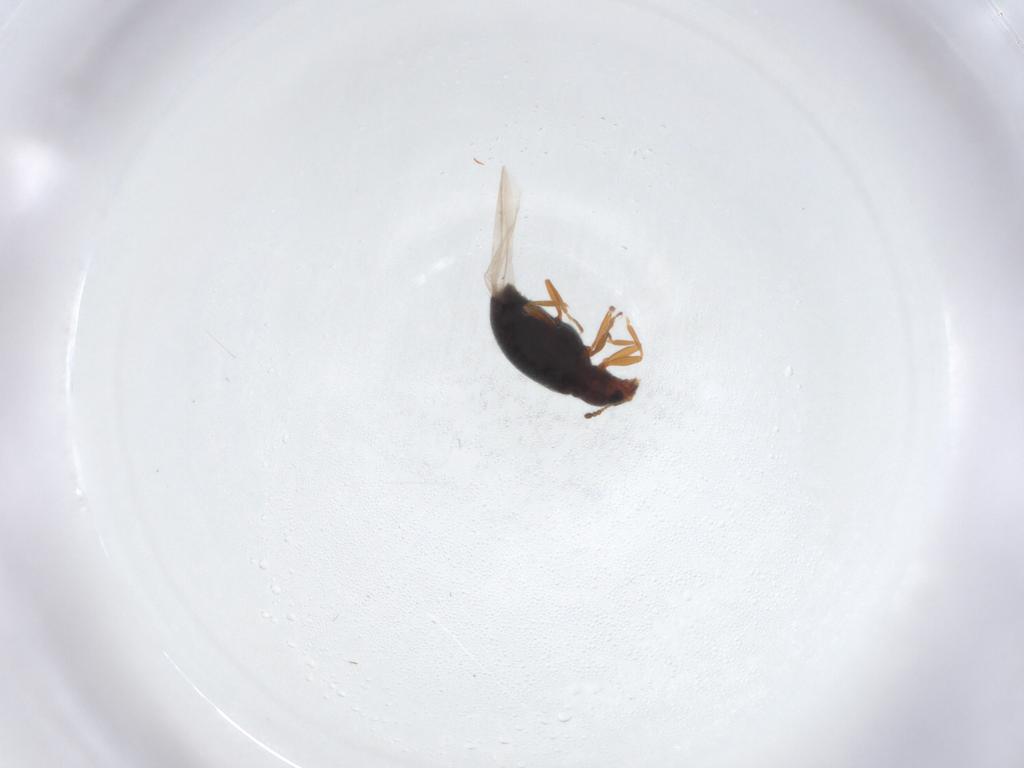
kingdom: Animalia
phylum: Arthropoda
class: Insecta
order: Coleoptera
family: Latridiidae
